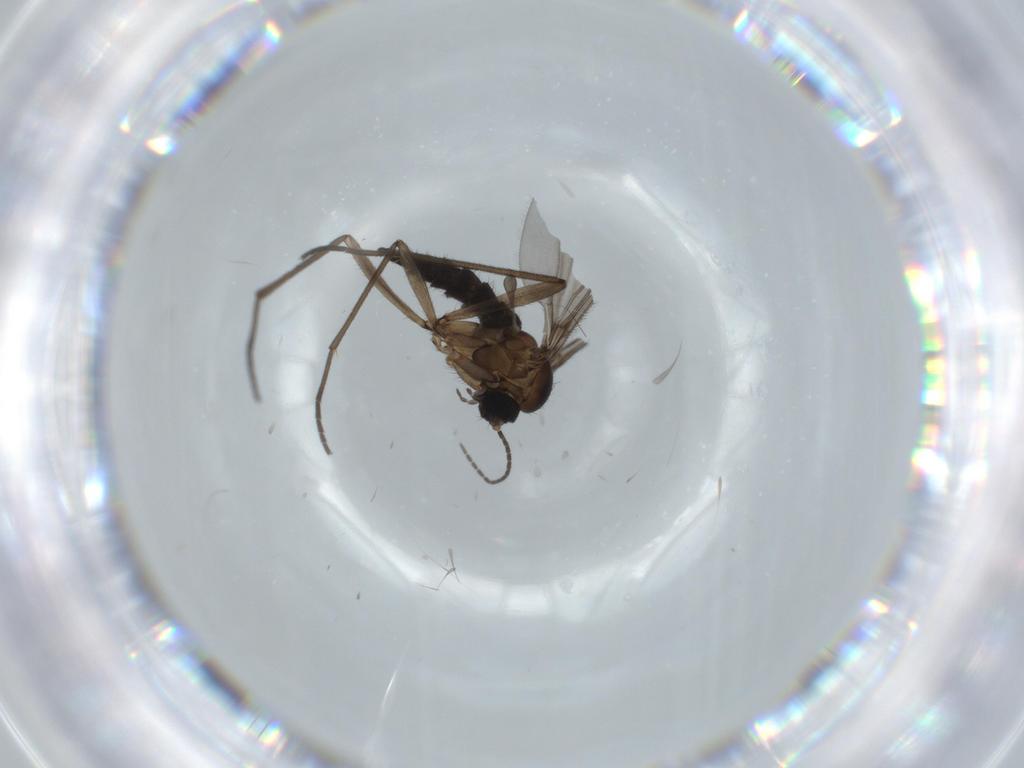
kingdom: Animalia
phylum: Arthropoda
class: Insecta
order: Diptera
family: Sciaridae
